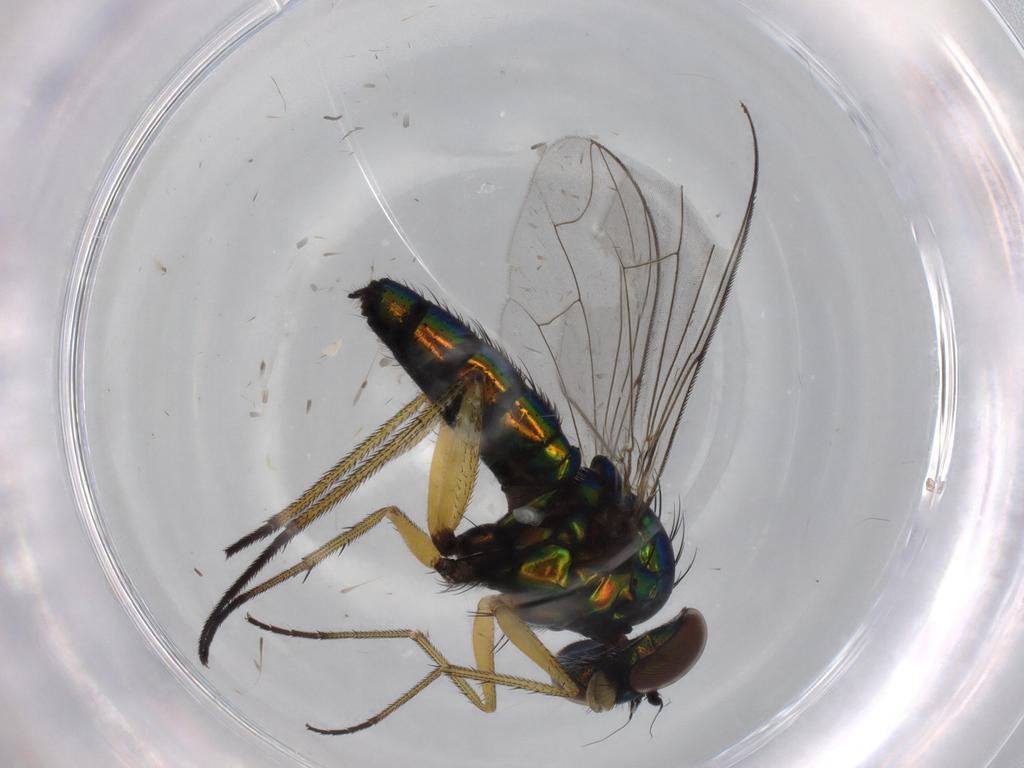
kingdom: Animalia
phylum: Arthropoda
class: Insecta
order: Diptera
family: Dolichopodidae
